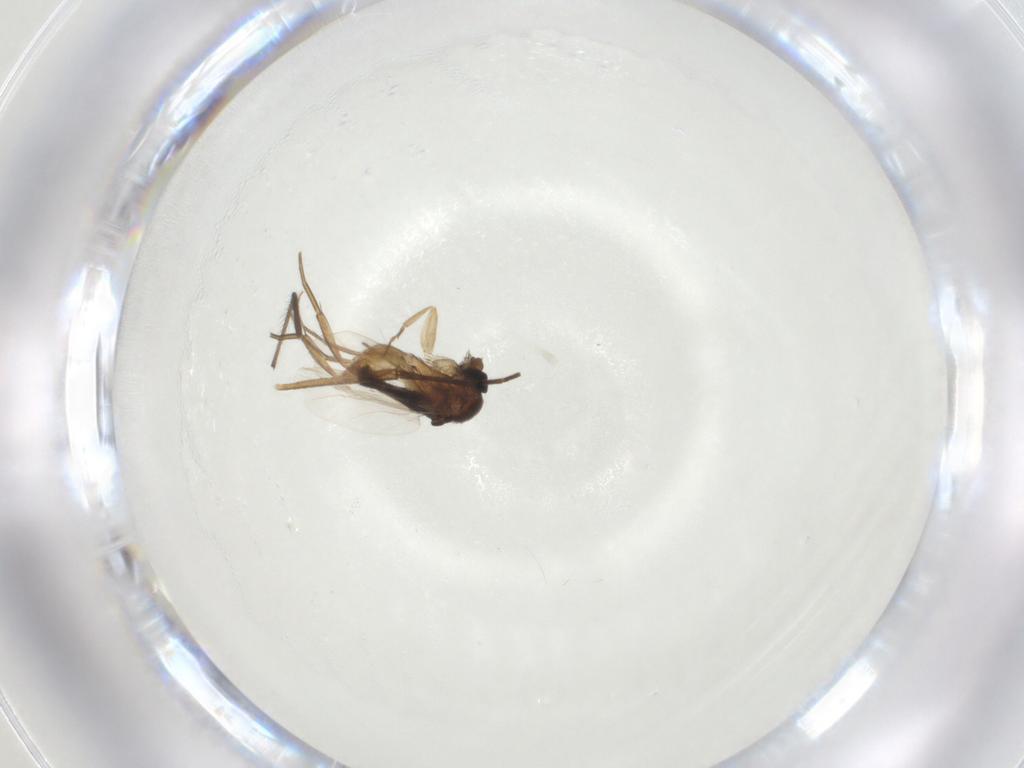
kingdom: Animalia
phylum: Arthropoda
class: Insecta
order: Diptera
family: Phoridae
